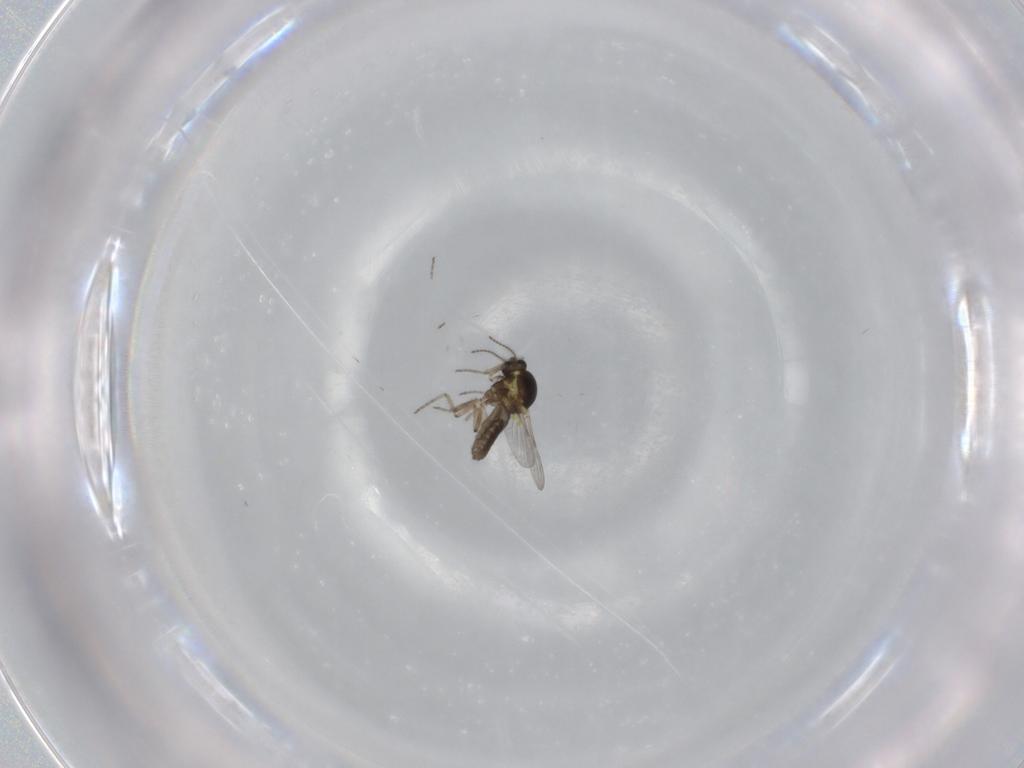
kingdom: Animalia
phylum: Arthropoda
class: Insecta
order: Diptera
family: Ceratopogonidae
